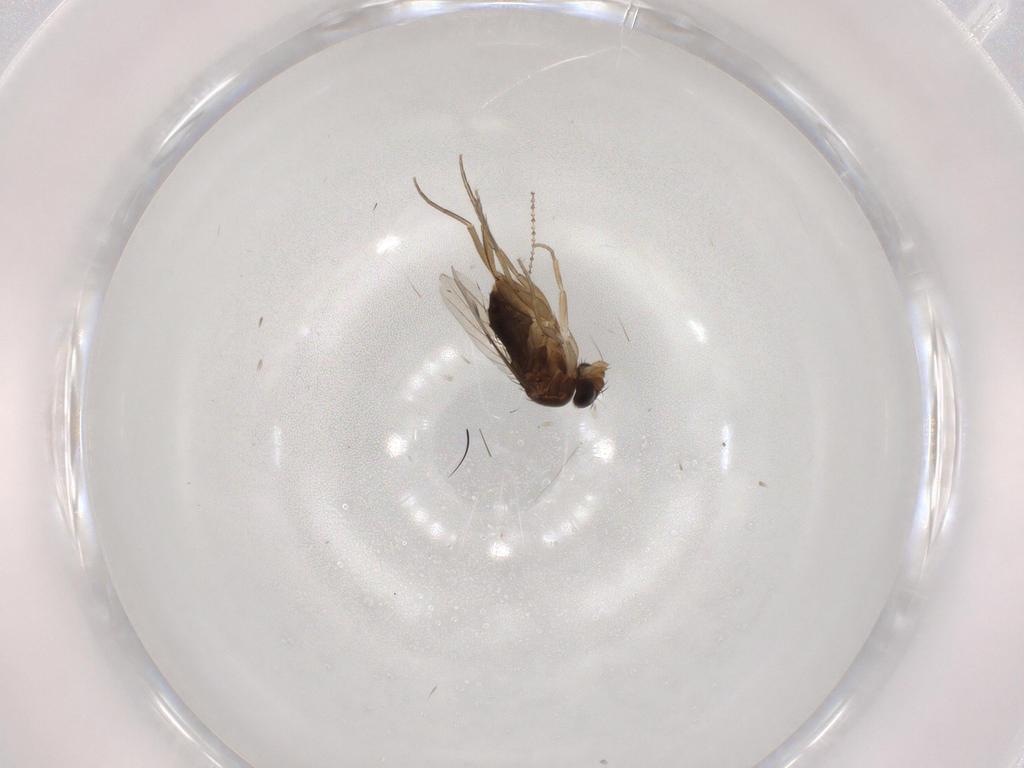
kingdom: Animalia
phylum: Arthropoda
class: Insecta
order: Diptera
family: Phoridae
